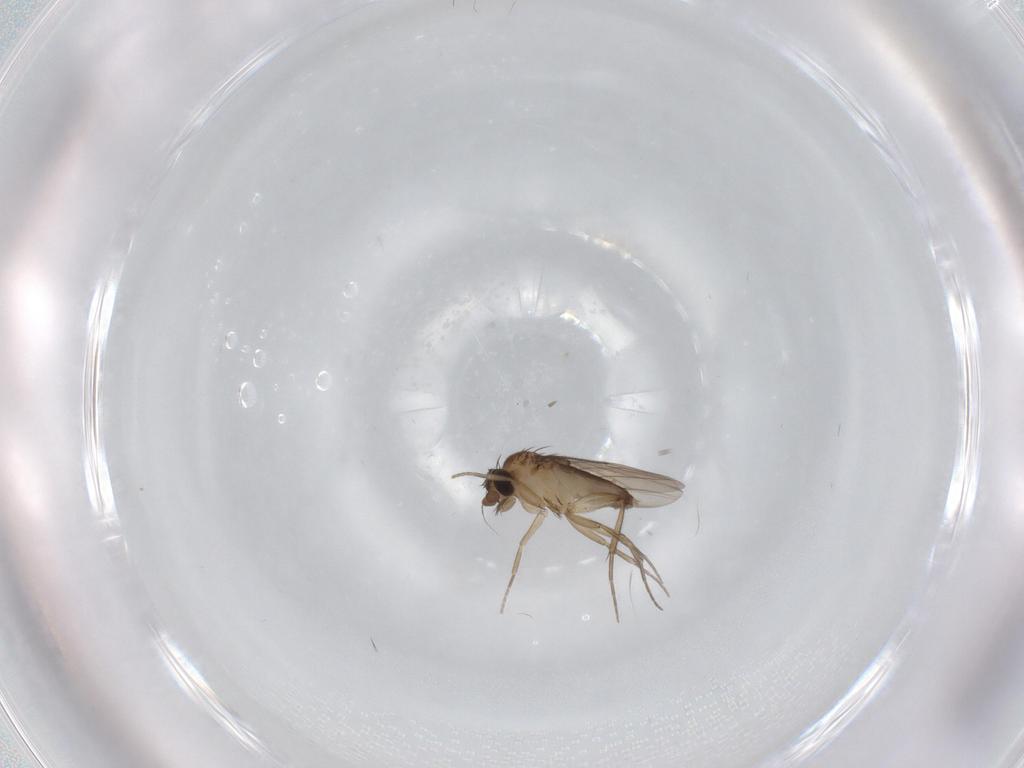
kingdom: Animalia
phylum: Arthropoda
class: Insecta
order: Diptera
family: Phoridae
